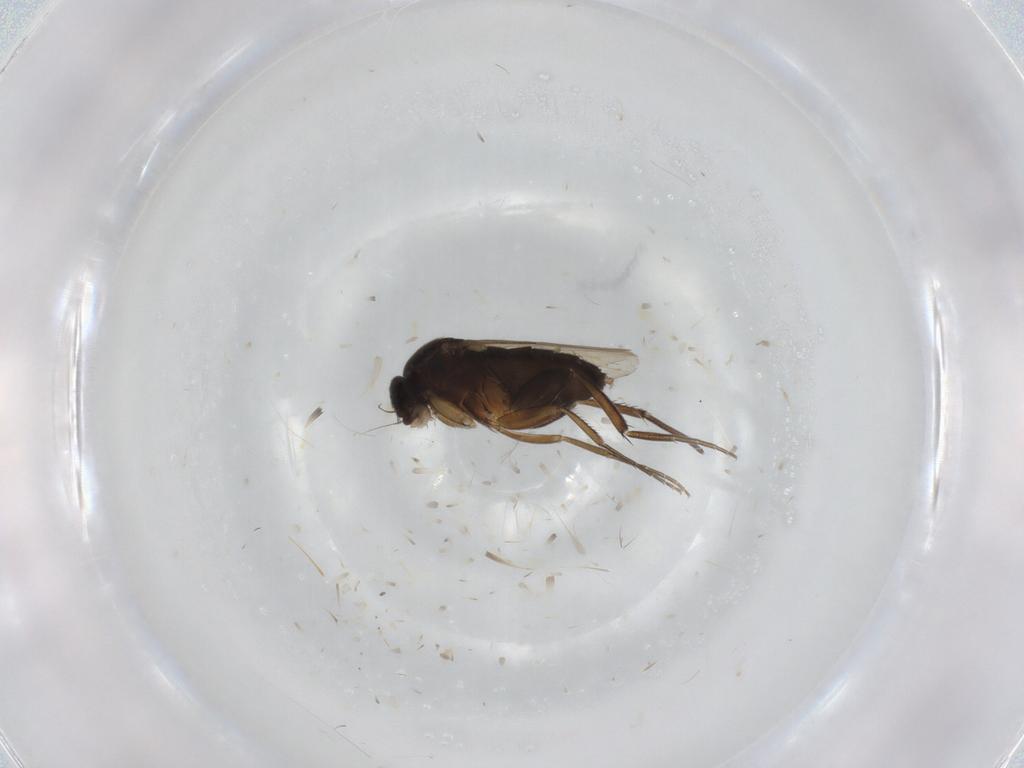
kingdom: Animalia
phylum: Arthropoda
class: Insecta
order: Diptera
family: Phoridae
